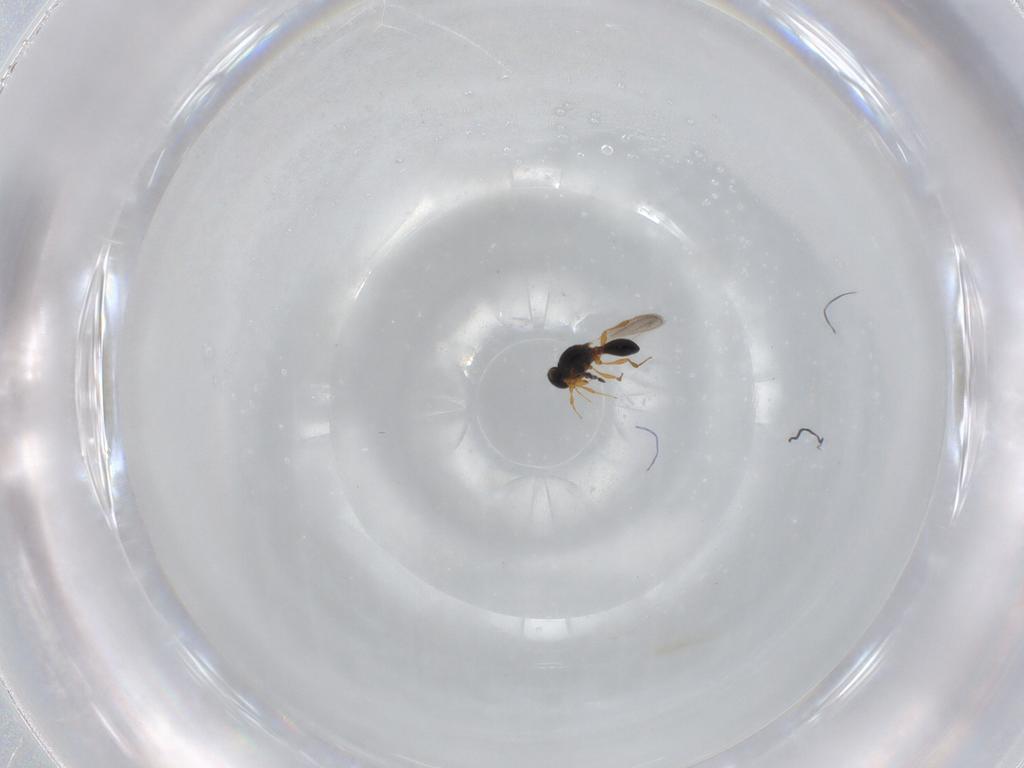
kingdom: Animalia
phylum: Arthropoda
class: Insecta
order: Hymenoptera
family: Platygastridae
